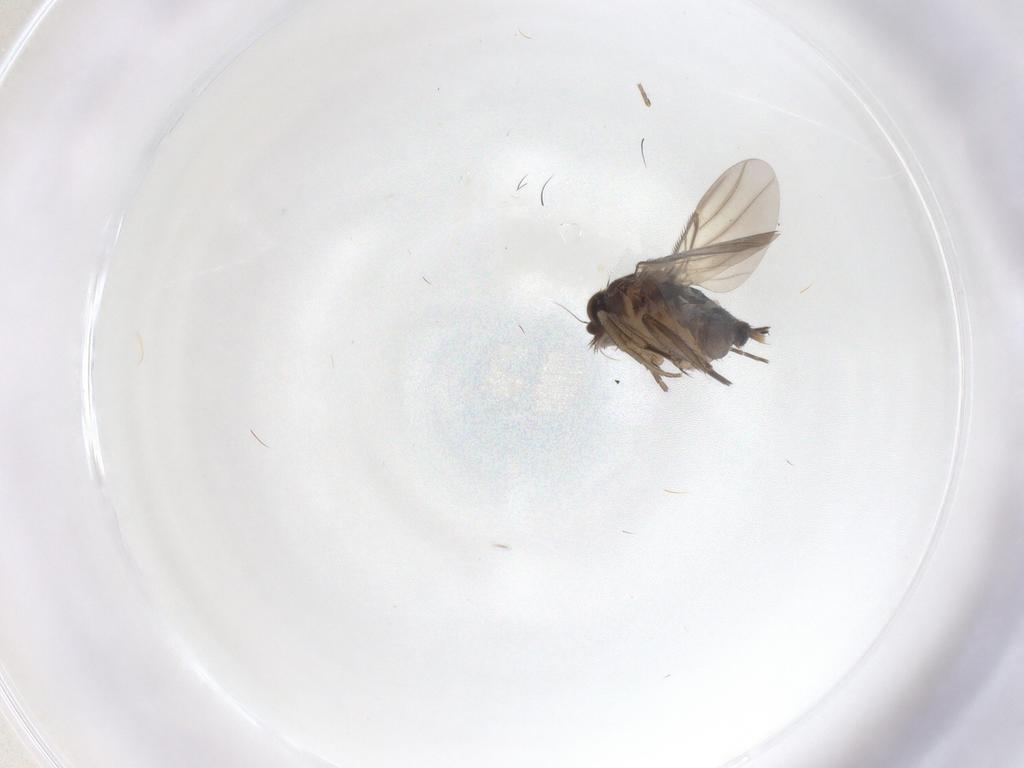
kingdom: Animalia
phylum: Arthropoda
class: Insecta
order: Diptera
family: Phoridae
